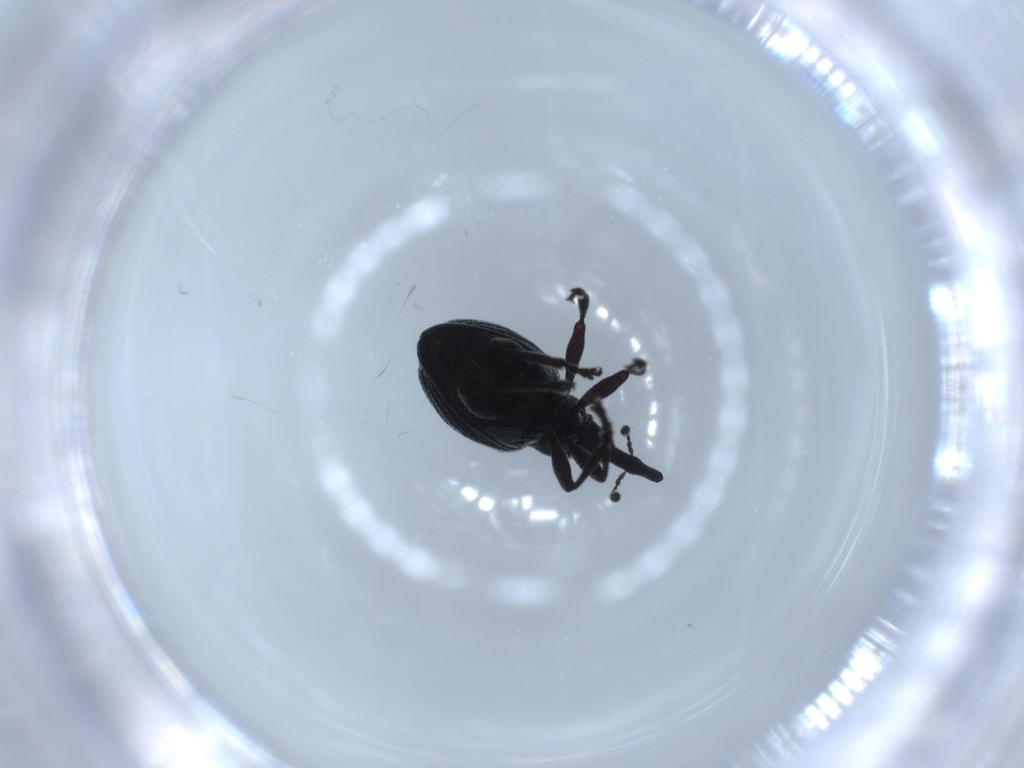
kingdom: Animalia
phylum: Arthropoda
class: Insecta
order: Coleoptera
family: Brentidae
